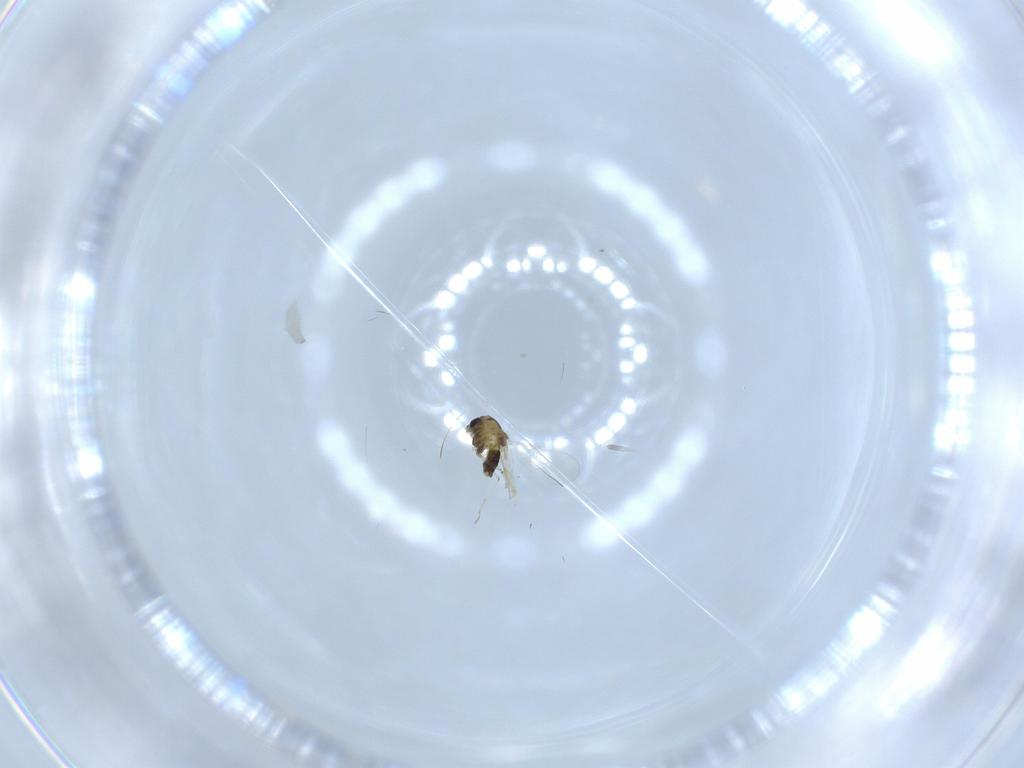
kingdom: Animalia
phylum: Arthropoda
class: Insecta
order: Diptera
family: Chironomidae
